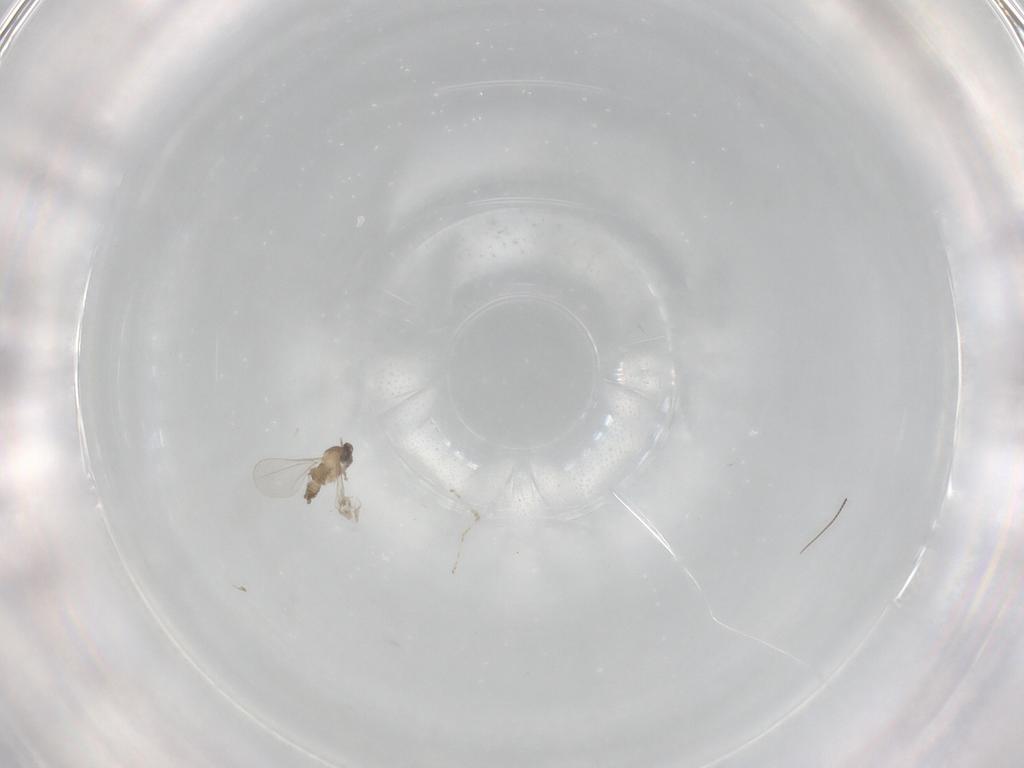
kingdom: Animalia
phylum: Arthropoda
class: Insecta
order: Diptera
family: Cecidomyiidae
